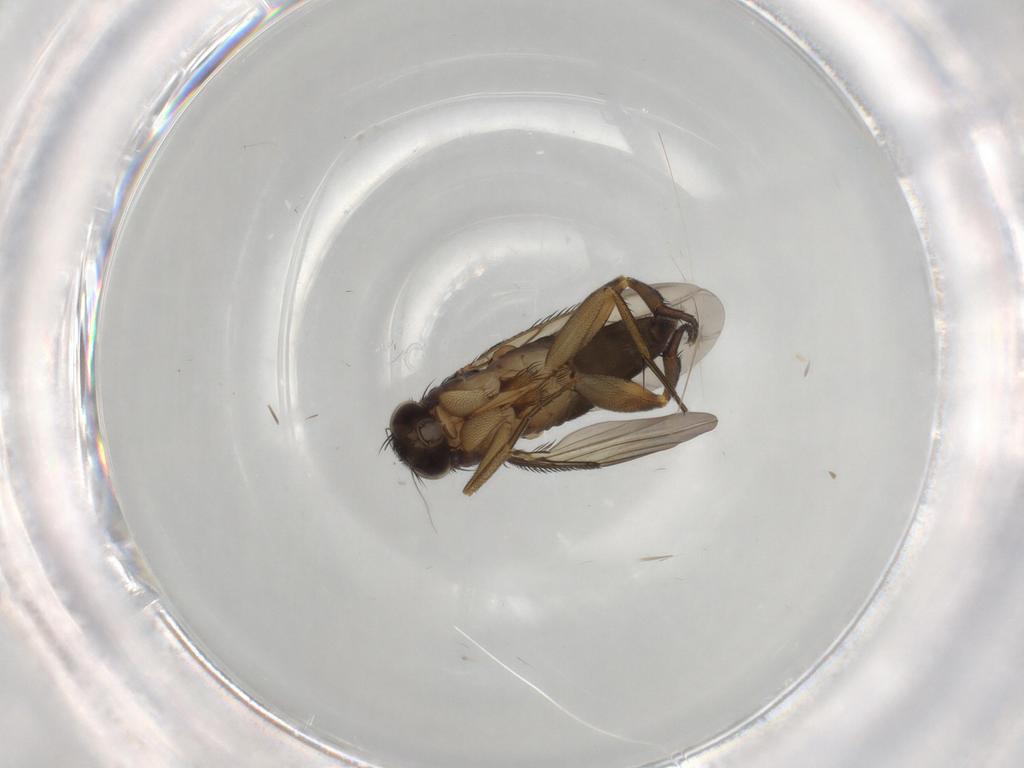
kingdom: Animalia
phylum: Arthropoda
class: Insecta
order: Diptera
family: Phoridae
